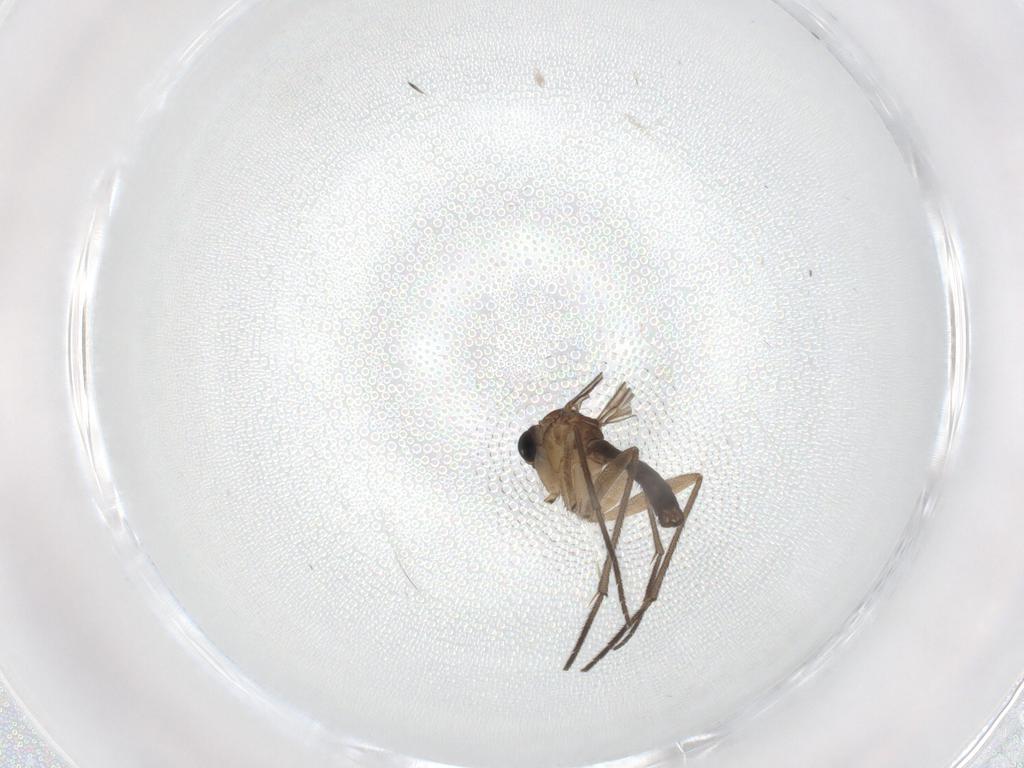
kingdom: Animalia
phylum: Arthropoda
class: Insecta
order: Diptera
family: Sciaridae
